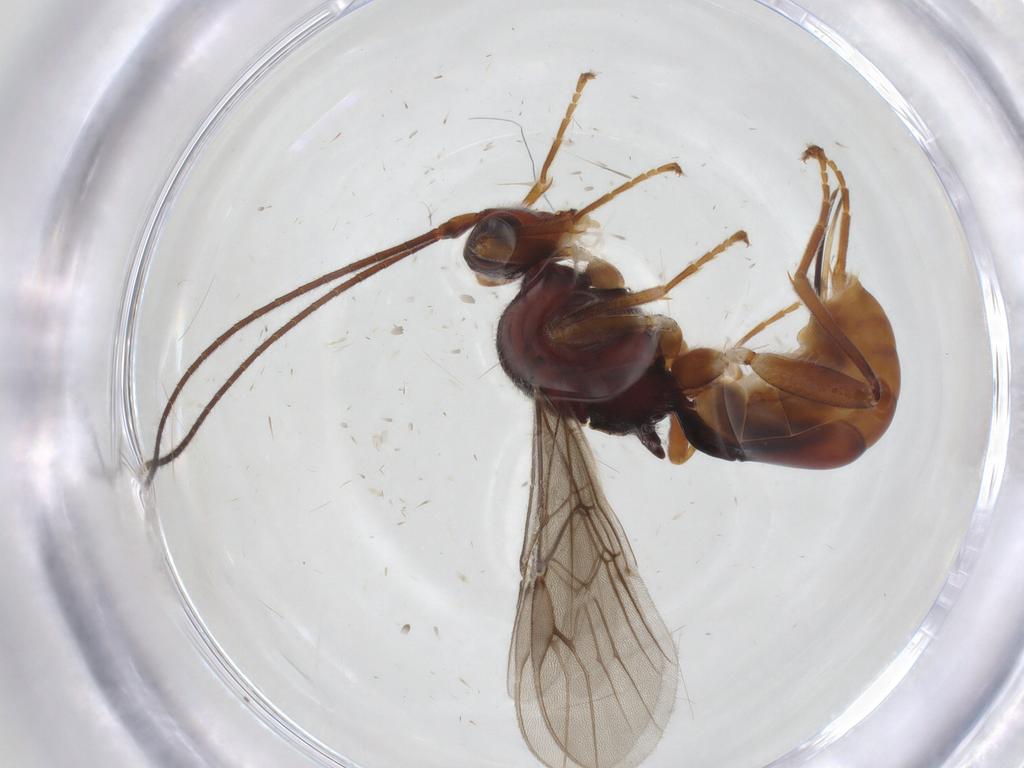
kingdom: Animalia
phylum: Arthropoda
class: Insecta
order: Hymenoptera
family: Braconidae
